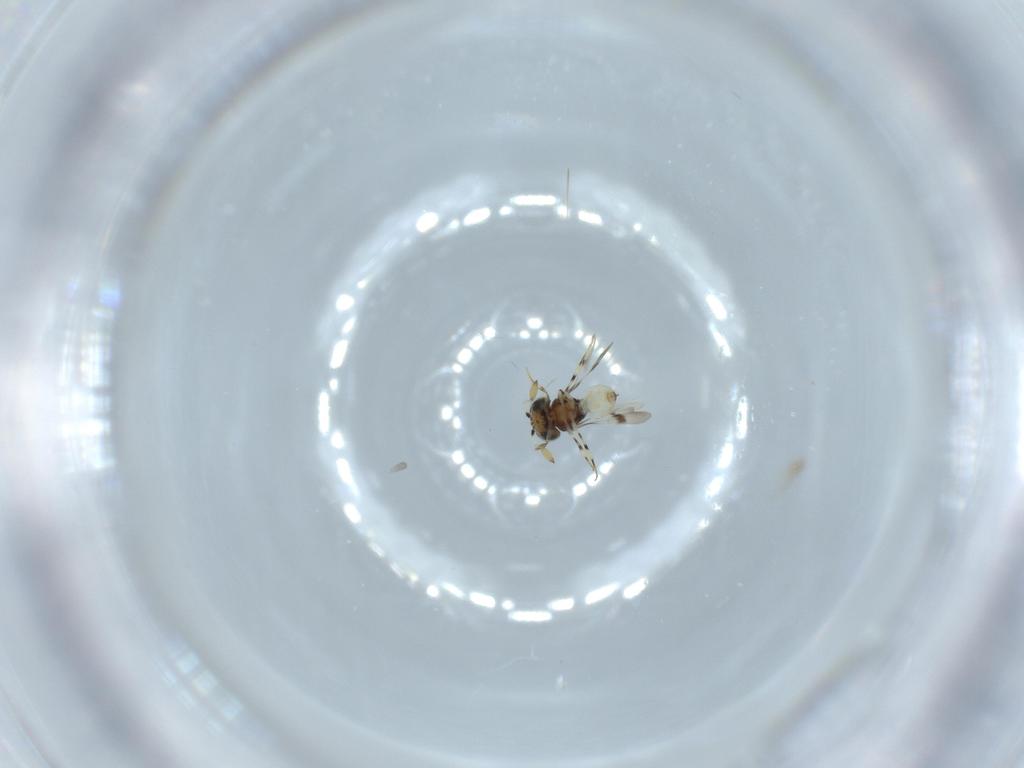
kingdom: Animalia
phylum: Arthropoda
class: Insecta
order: Hymenoptera
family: Scelionidae
